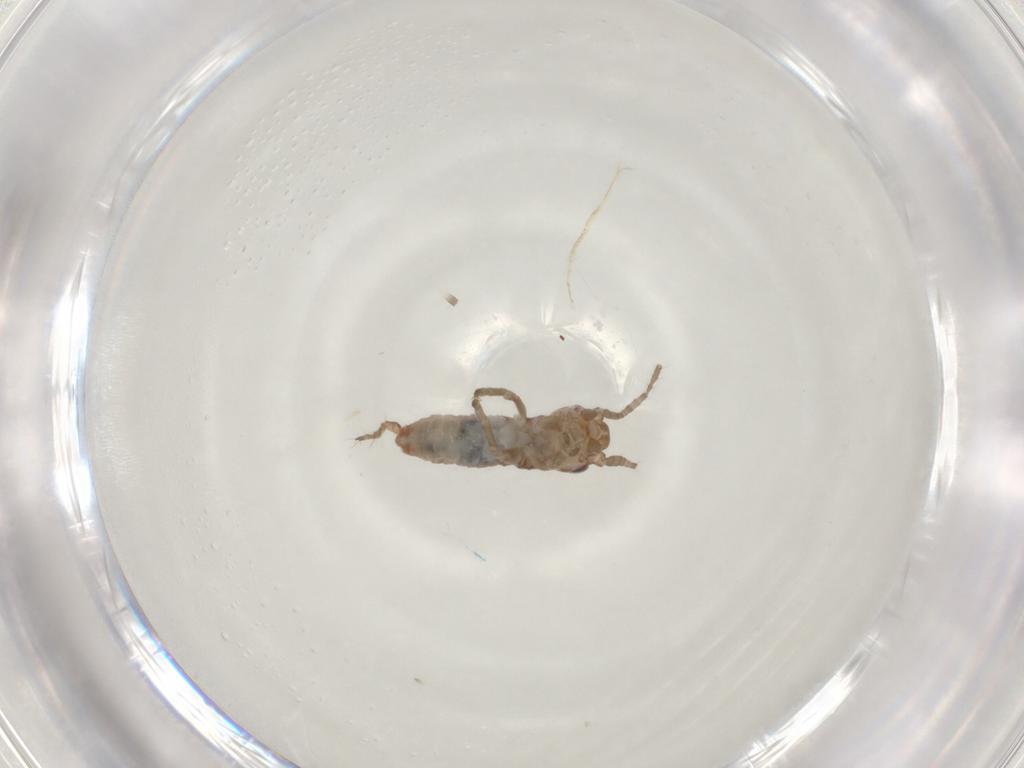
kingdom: Animalia
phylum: Arthropoda
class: Insecta
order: Orthoptera
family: Mogoplistidae
